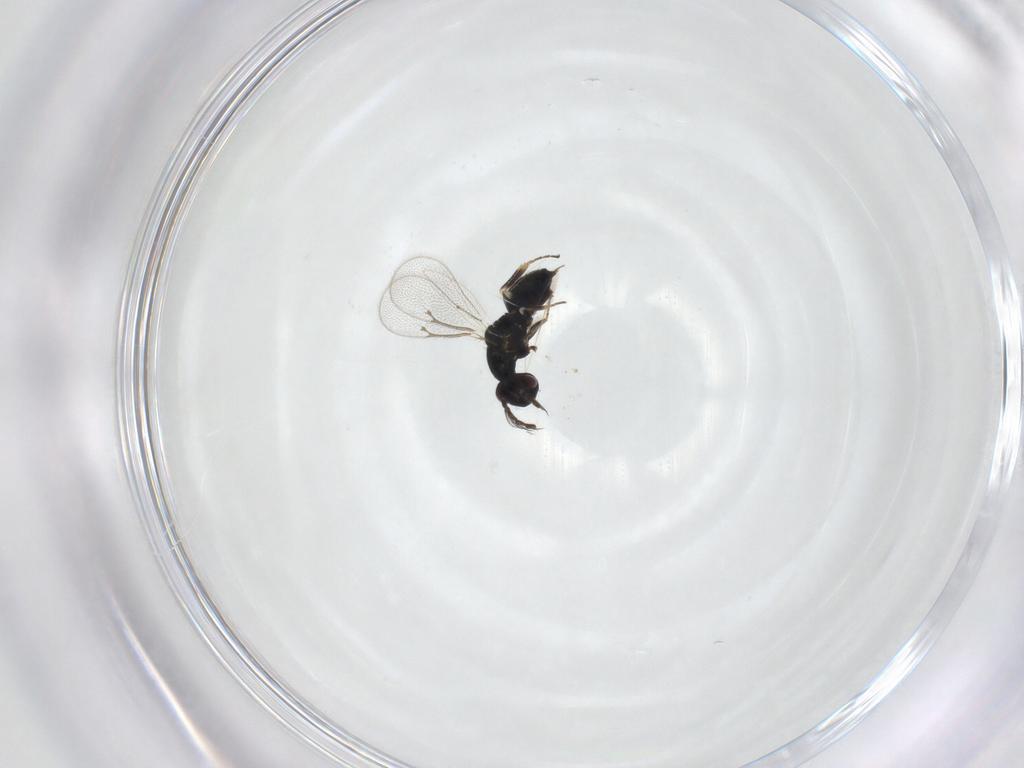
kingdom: Animalia
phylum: Arthropoda
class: Insecta
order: Hymenoptera
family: Eulophidae
